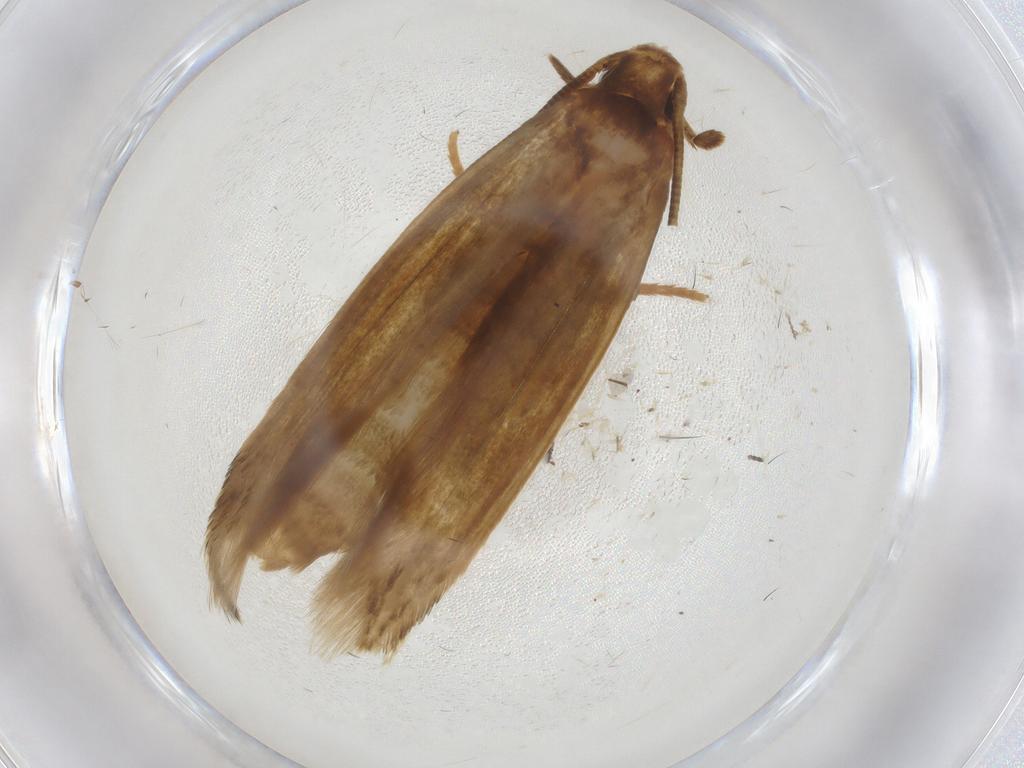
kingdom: Animalia
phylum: Arthropoda
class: Insecta
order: Lepidoptera
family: Tineidae
